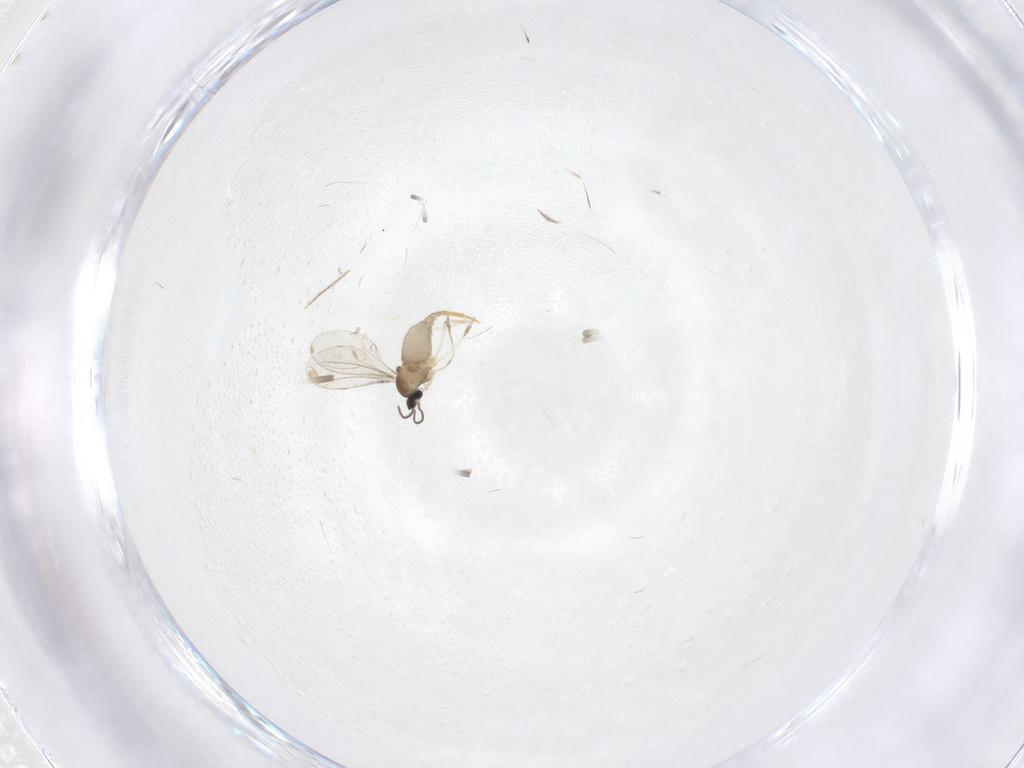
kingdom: Animalia
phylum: Arthropoda
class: Insecta
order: Diptera
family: Cecidomyiidae
